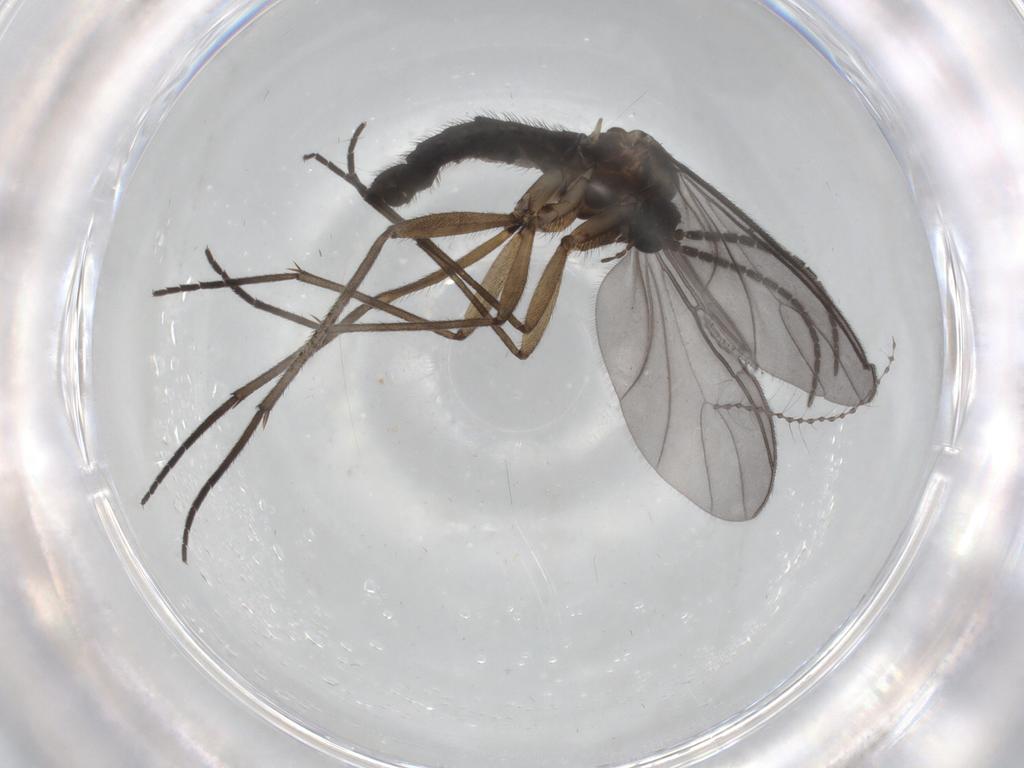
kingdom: Animalia
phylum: Arthropoda
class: Insecta
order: Diptera
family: Sciaridae
